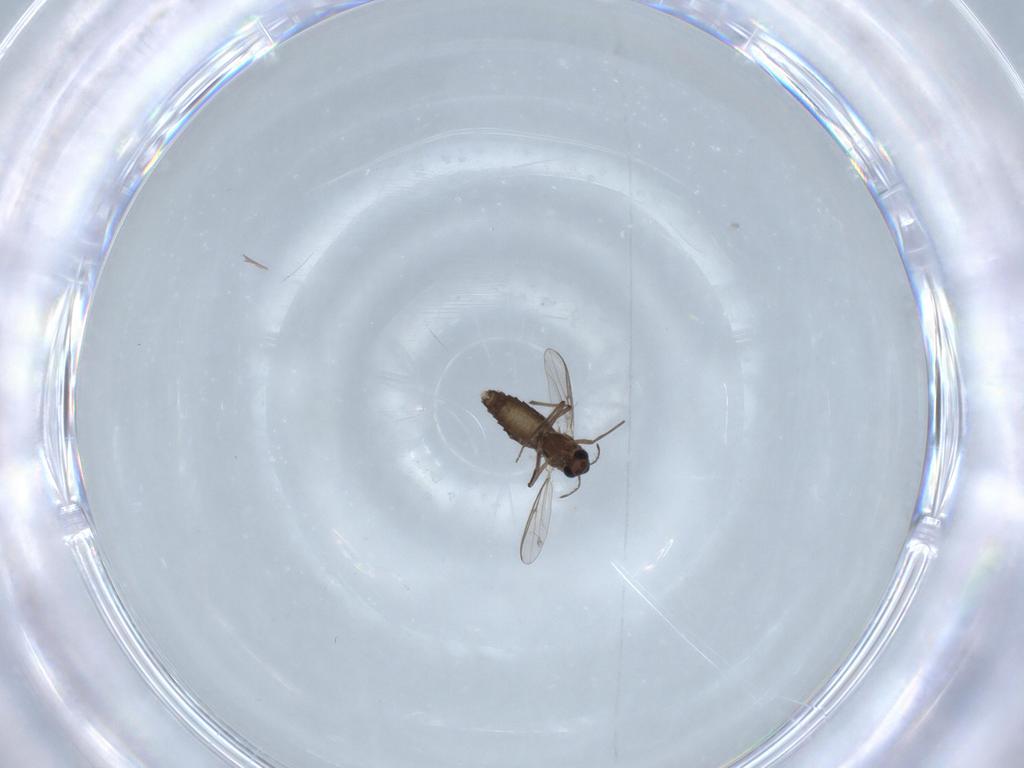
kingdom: Animalia
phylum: Arthropoda
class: Insecta
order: Diptera
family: Chironomidae
